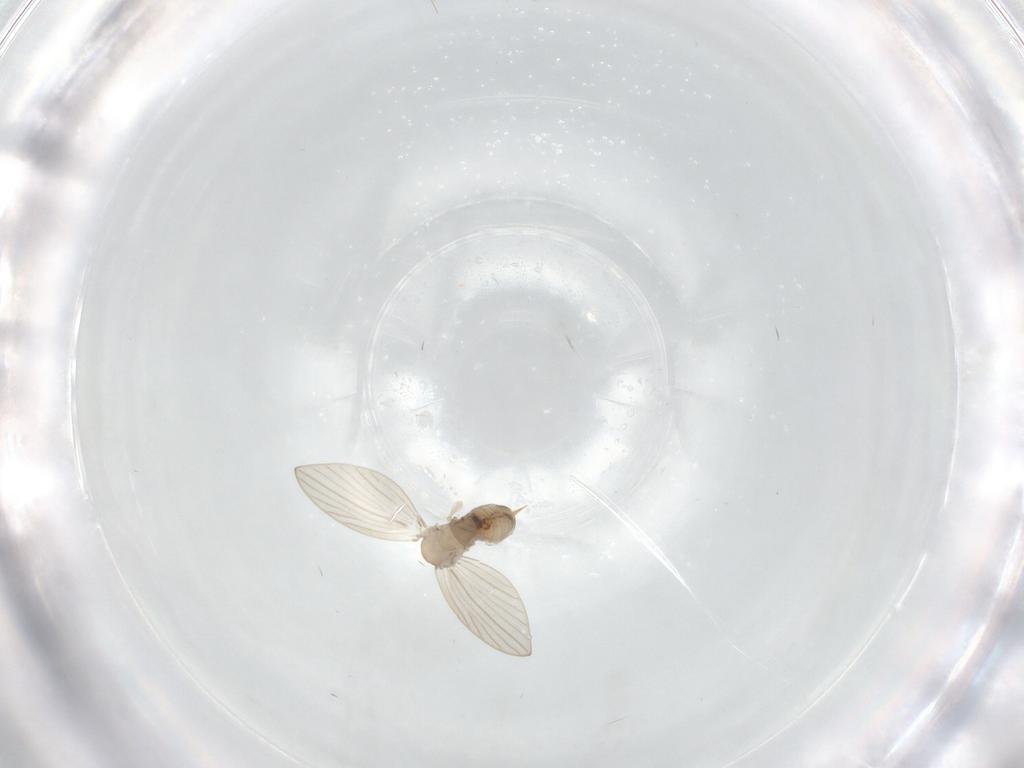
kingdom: Animalia
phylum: Arthropoda
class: Insecta
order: Diptera
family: Psychodidae
